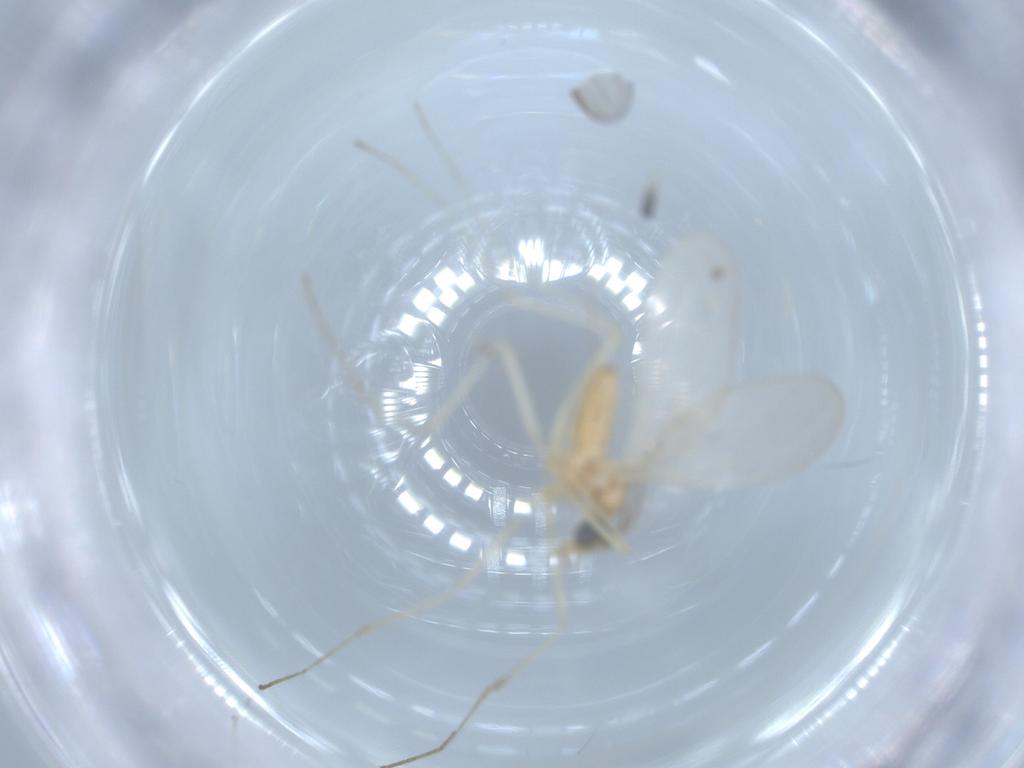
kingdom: Animalia
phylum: Arthropoda
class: Insecta
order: Diptera
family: Cecidomyiidae
